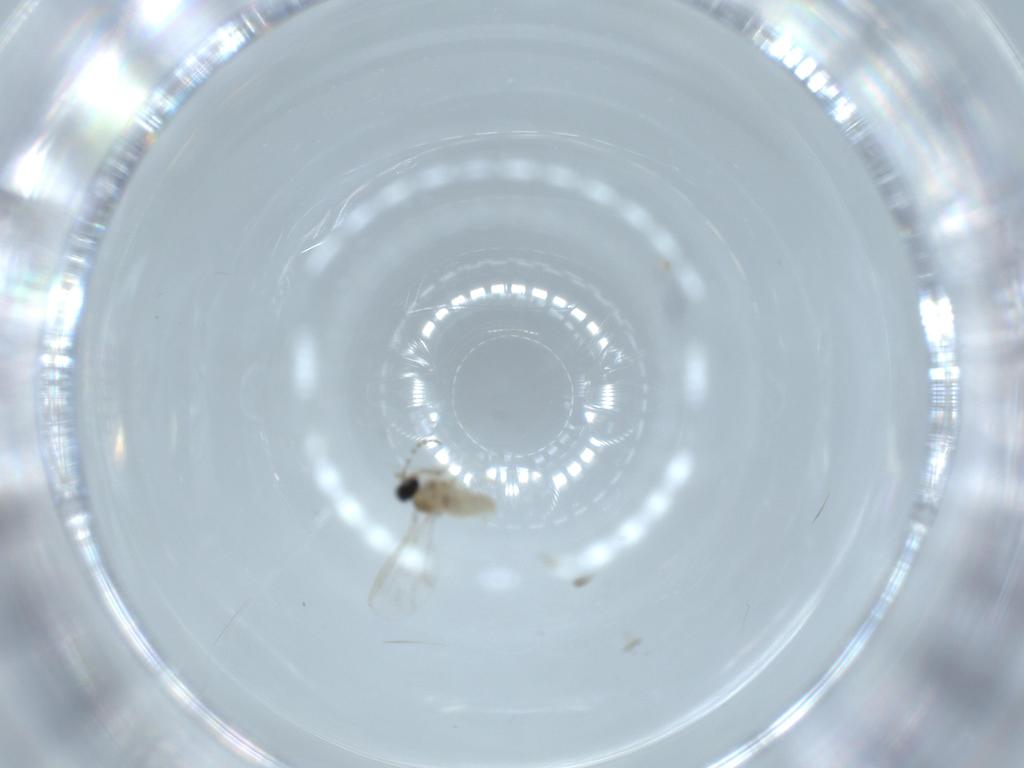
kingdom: Animalia
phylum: Arthropoda
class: Insecta
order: Diptera
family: Cecidomyiidae
